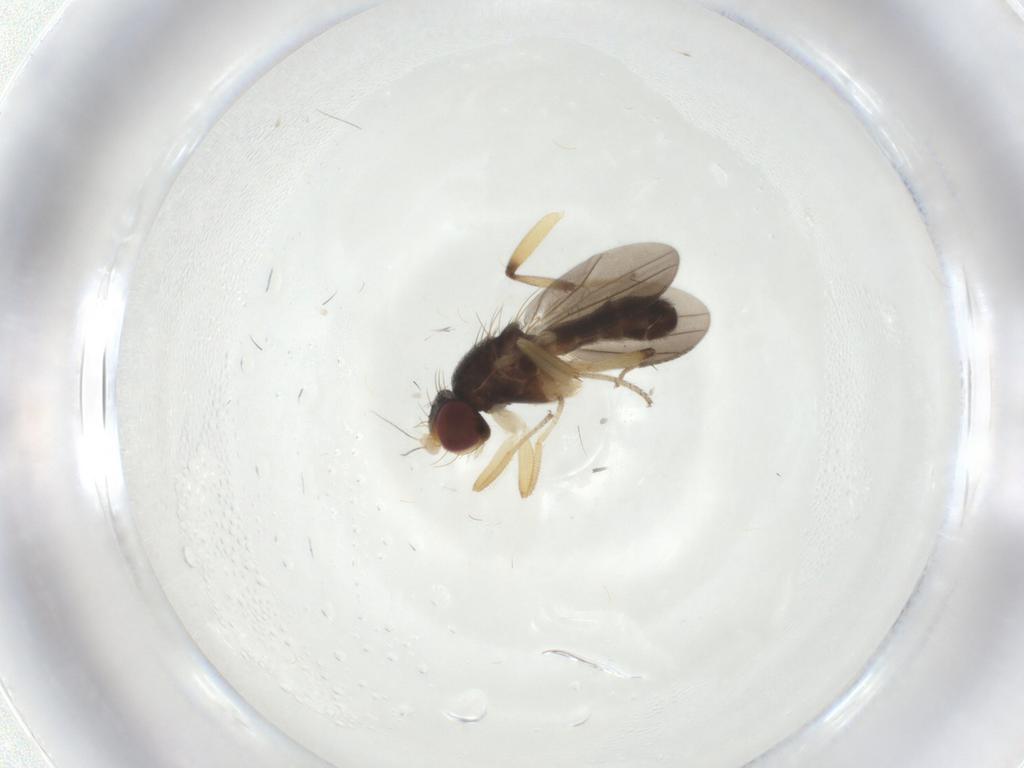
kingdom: Animalia
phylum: Arthropoda
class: Insecta
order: Diptera
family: Clusiidae
